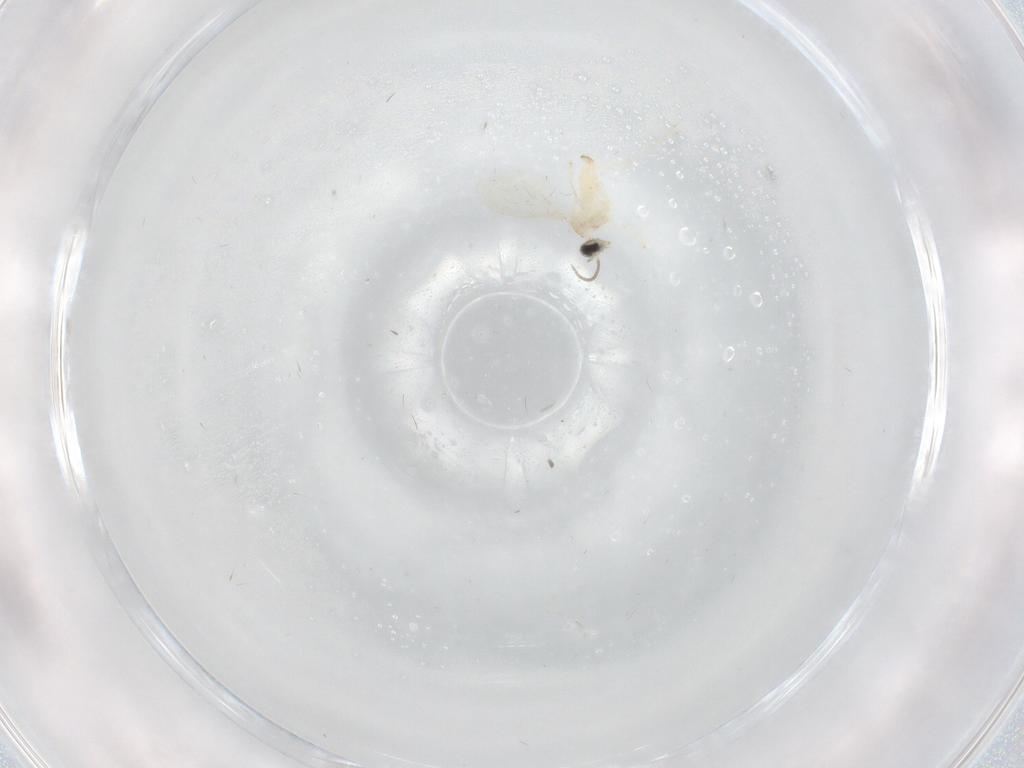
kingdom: Animalia
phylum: Arthropoda
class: Insecta
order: Diptera
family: Cecidomyiidae
